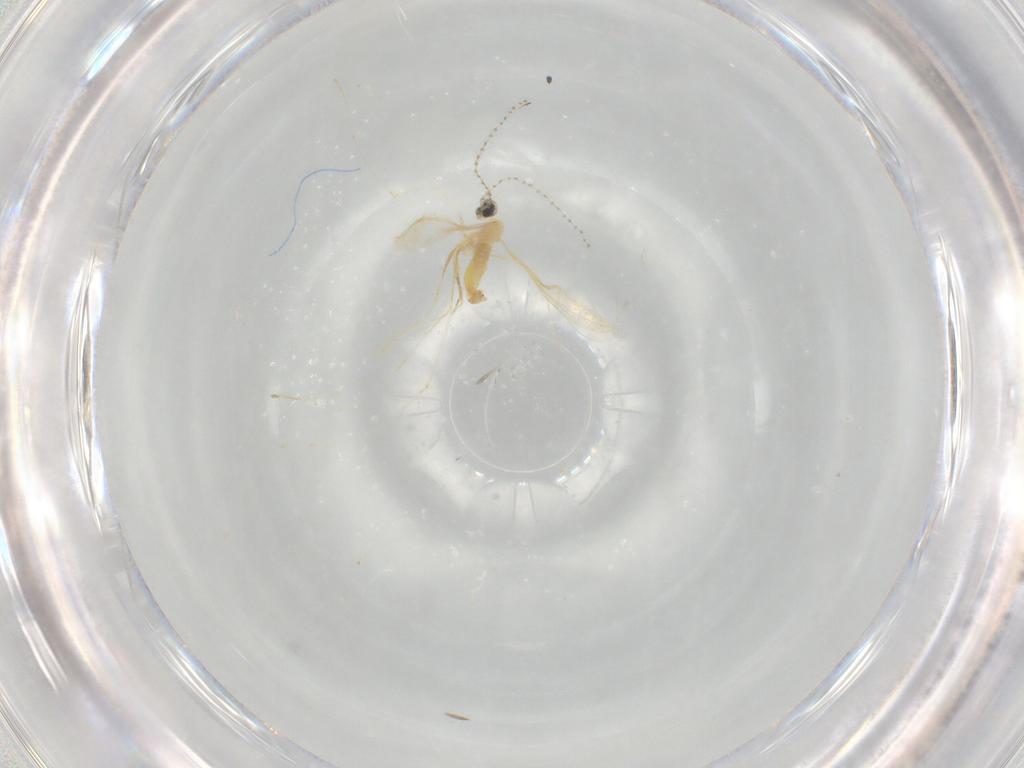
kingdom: Animalia
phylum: Arthropoda
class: Insecta
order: Diptera
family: Cecidomyiidae
